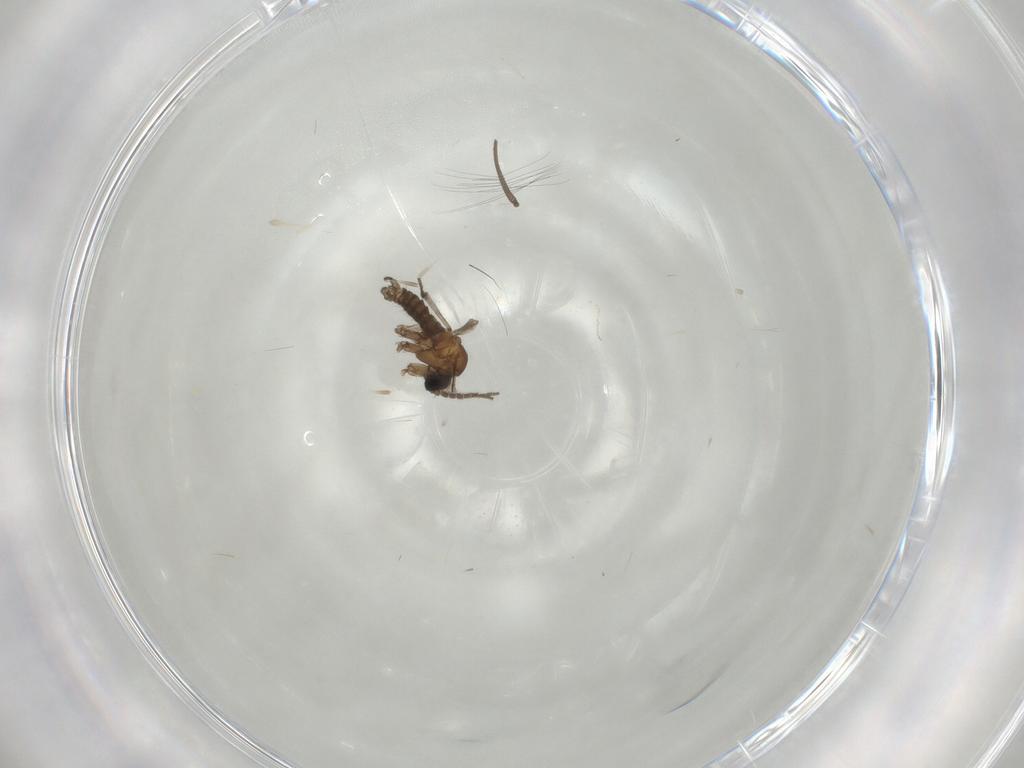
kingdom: Animalia
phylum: Arthropoda
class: Insecta
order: Diptera
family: Sciaridae
